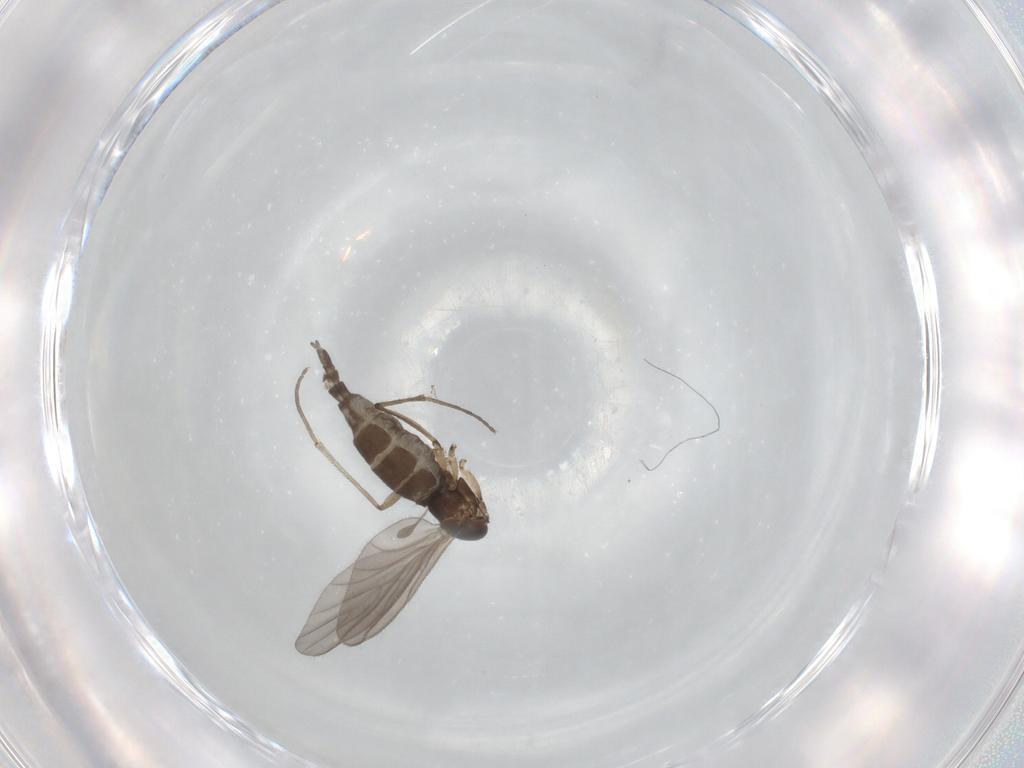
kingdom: Animalia
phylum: Arthropoda
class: Insecta
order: Diptera
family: Sciaridae
